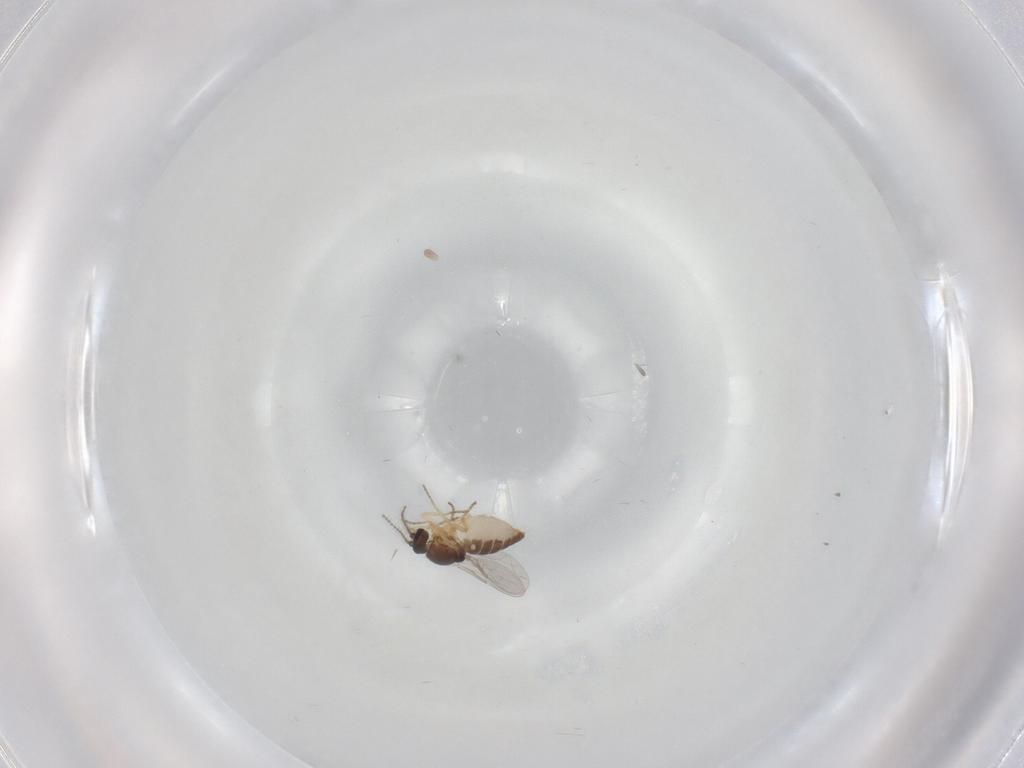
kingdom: Animalia
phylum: Arthropoda
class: Insecta
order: Diptera
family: Ceratopogonidae
